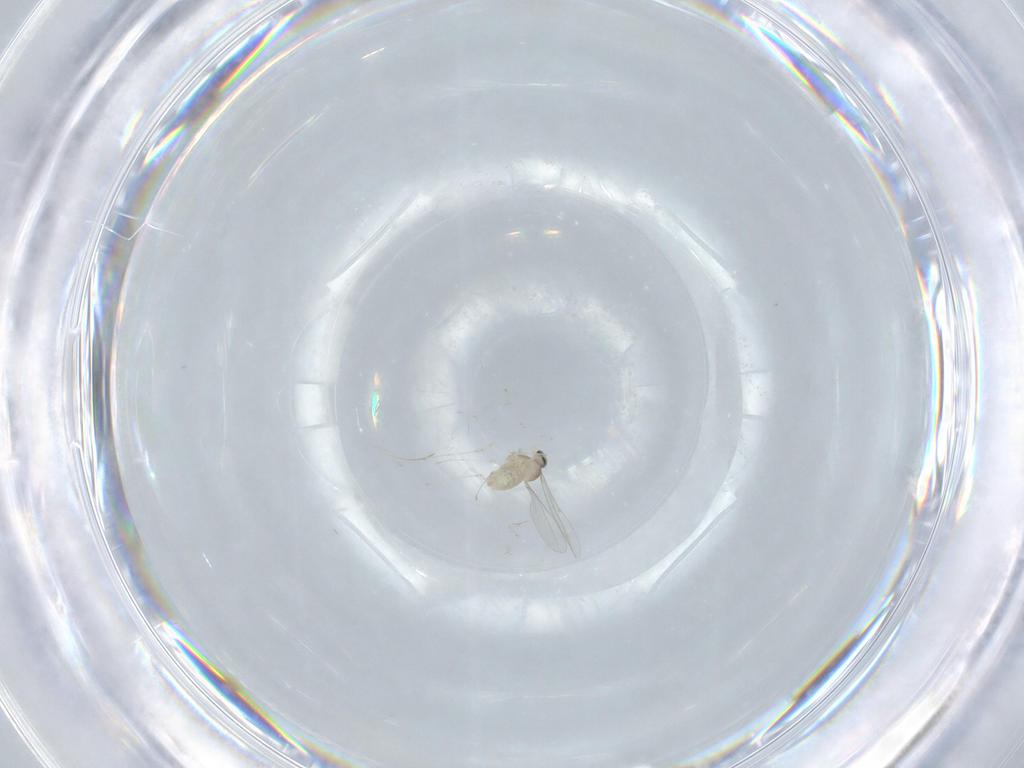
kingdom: Animalia
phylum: Arthropoda
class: Insecta
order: Diptera
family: Cecidomyiidae
